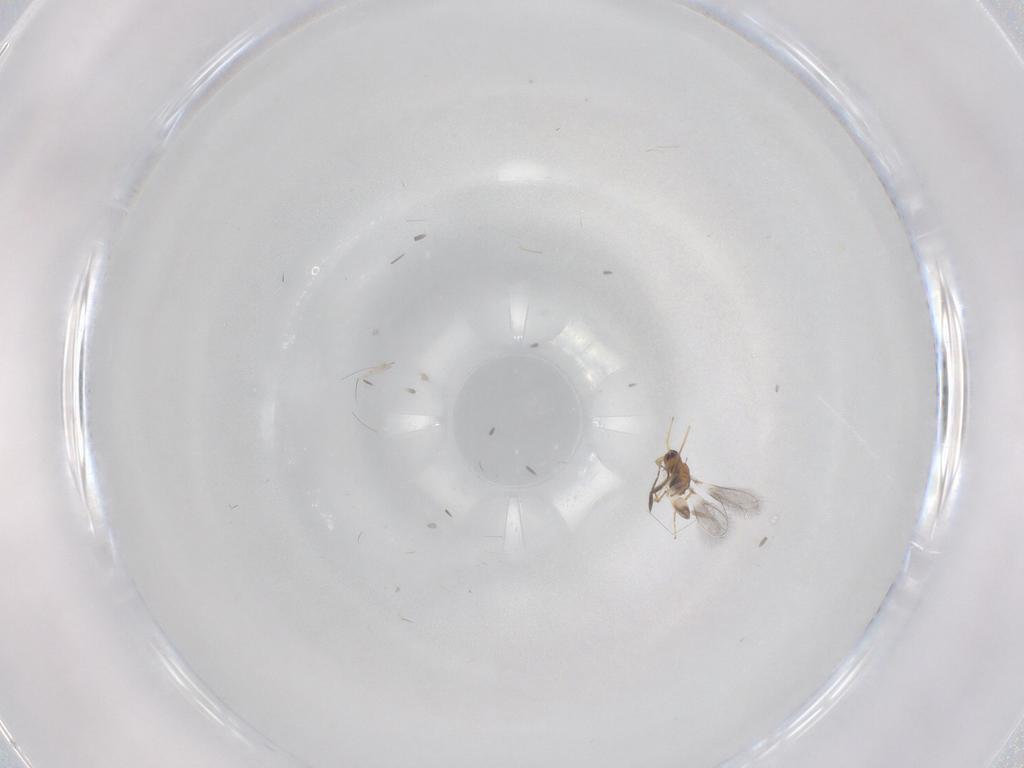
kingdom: Animalia
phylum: Arthropoda
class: Insecta
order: Hymenoptera
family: Mymaridae
